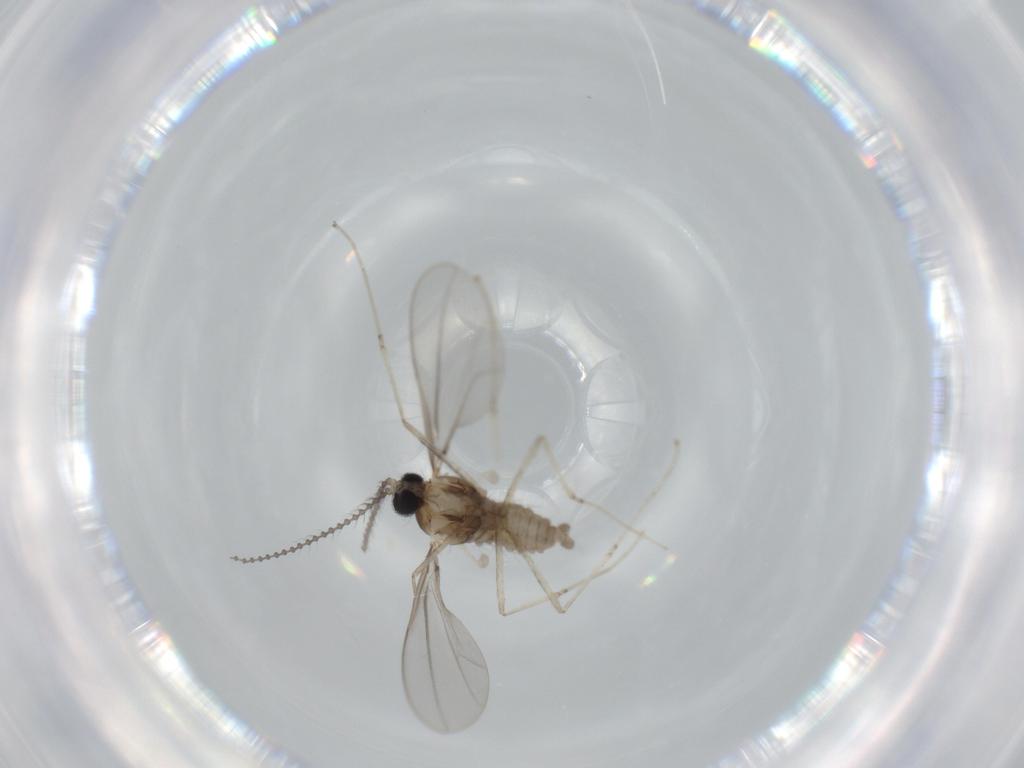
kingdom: Animalia
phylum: Arthropoda
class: Insecta
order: Diptera
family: Cecidomyiidae
